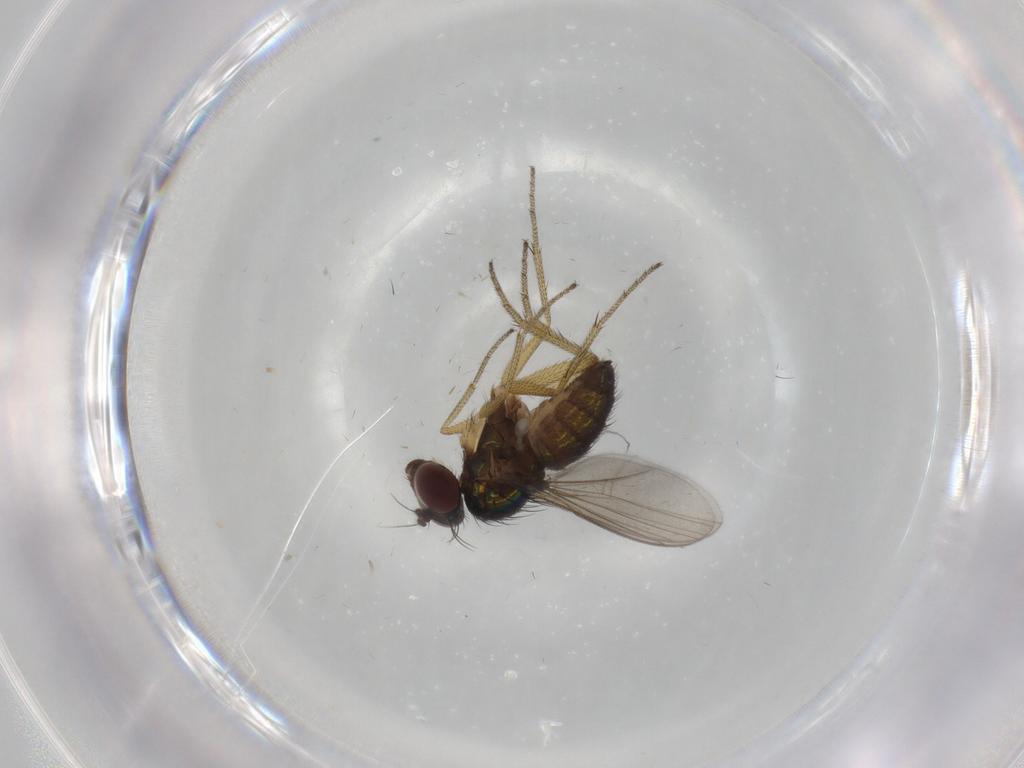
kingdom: Animalia
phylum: Arthropoda
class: Insecta
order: Diptera
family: Dolichopodidae
